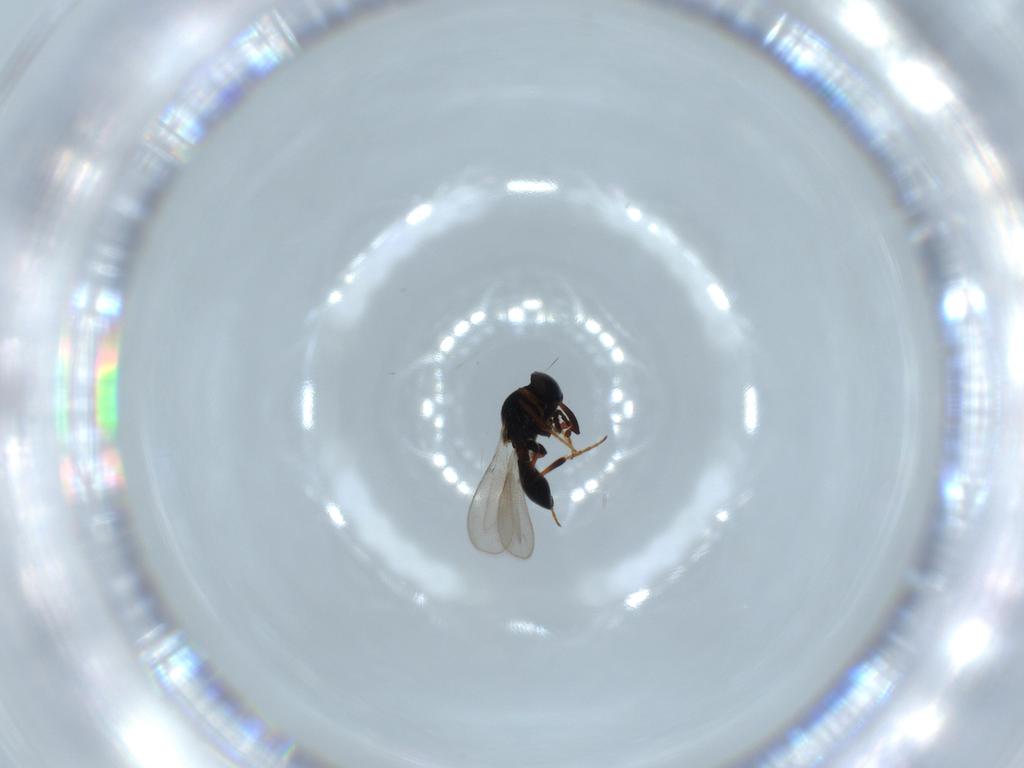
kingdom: Animalia
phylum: Arthropoda
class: Insecta
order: Hymenoptera
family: Platygastridae
